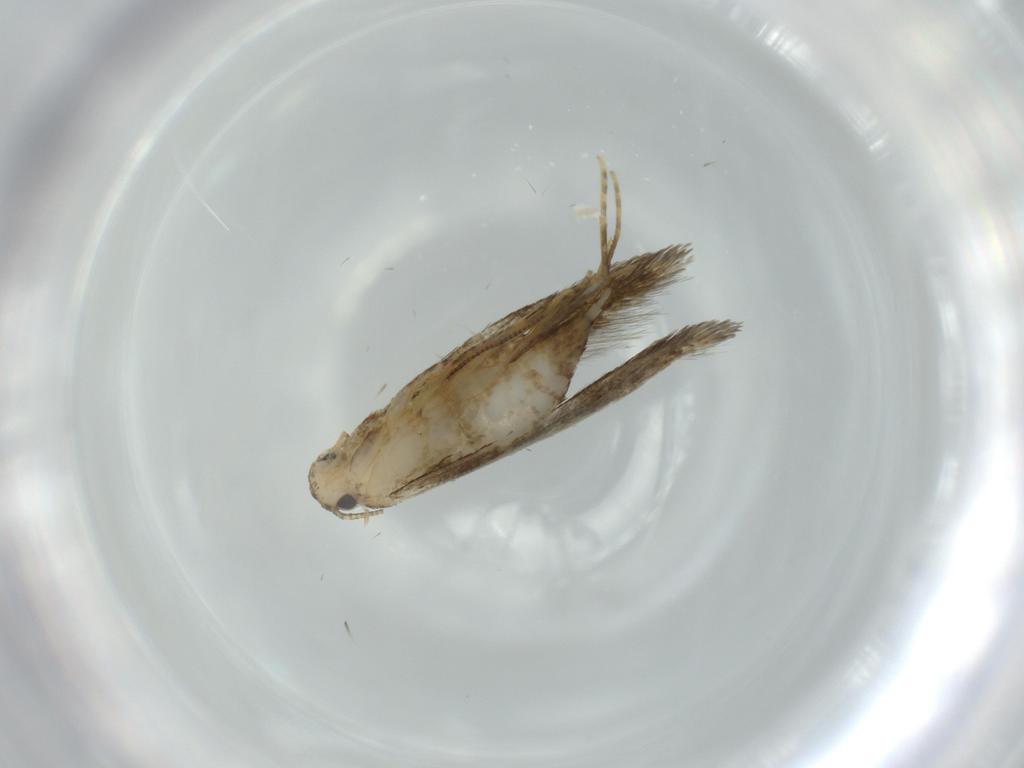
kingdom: Animalia
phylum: Arthropoda
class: Insecta
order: Lepidoptera
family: Tineidae
